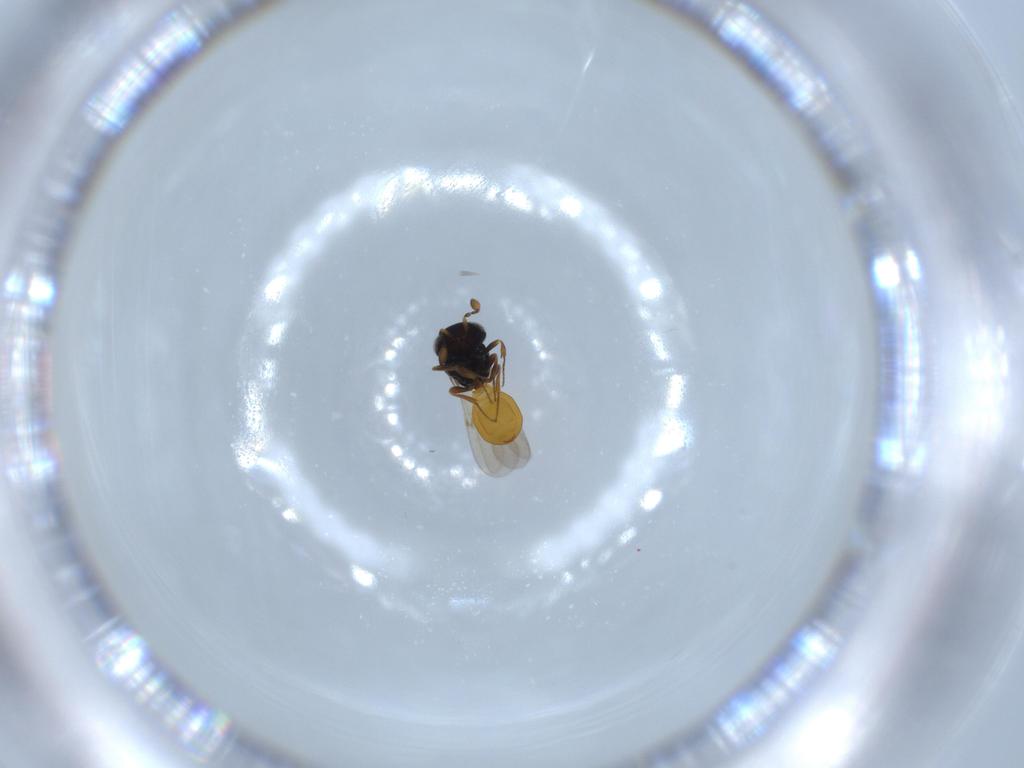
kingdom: Animalia
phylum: Arthropoda
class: Insecta
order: Hymenoptera
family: Scelionidae
